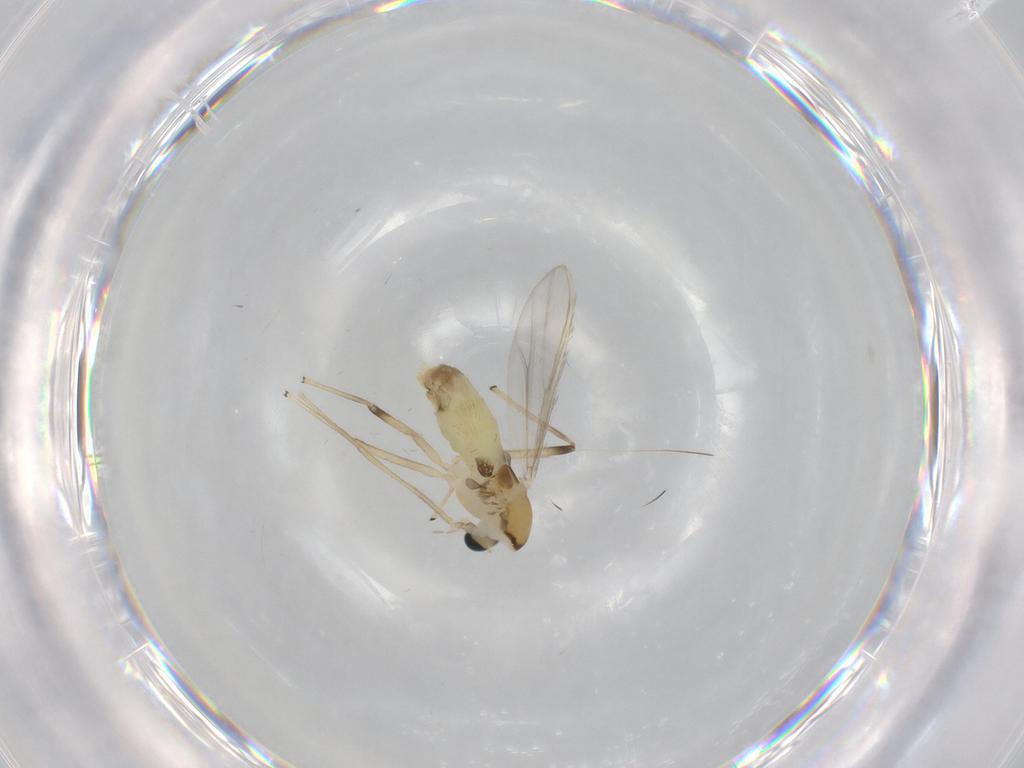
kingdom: Animalia
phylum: Arthropoda
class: Insecta
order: Diptera
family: Chironomidae
